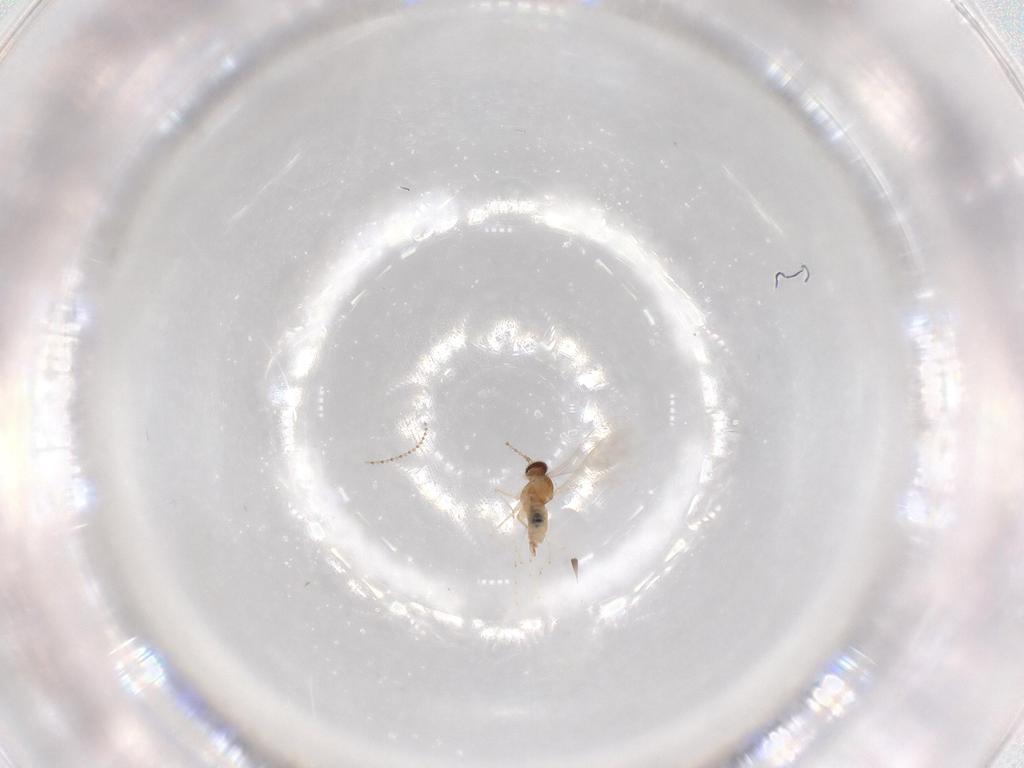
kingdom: Animalia
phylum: Arthropoda
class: Insecta
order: Diptera
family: Cecidomyiidae
